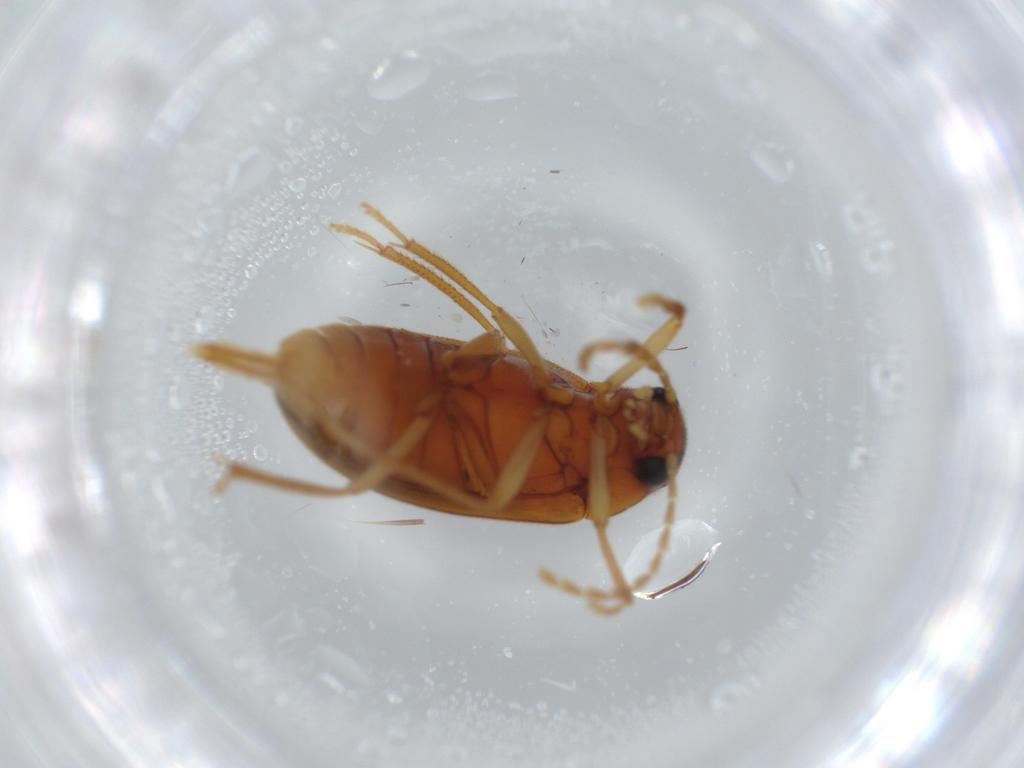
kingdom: Animalia
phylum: Arthropoda
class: Insecta
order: Coleoptera
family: Ptilodactylidae
